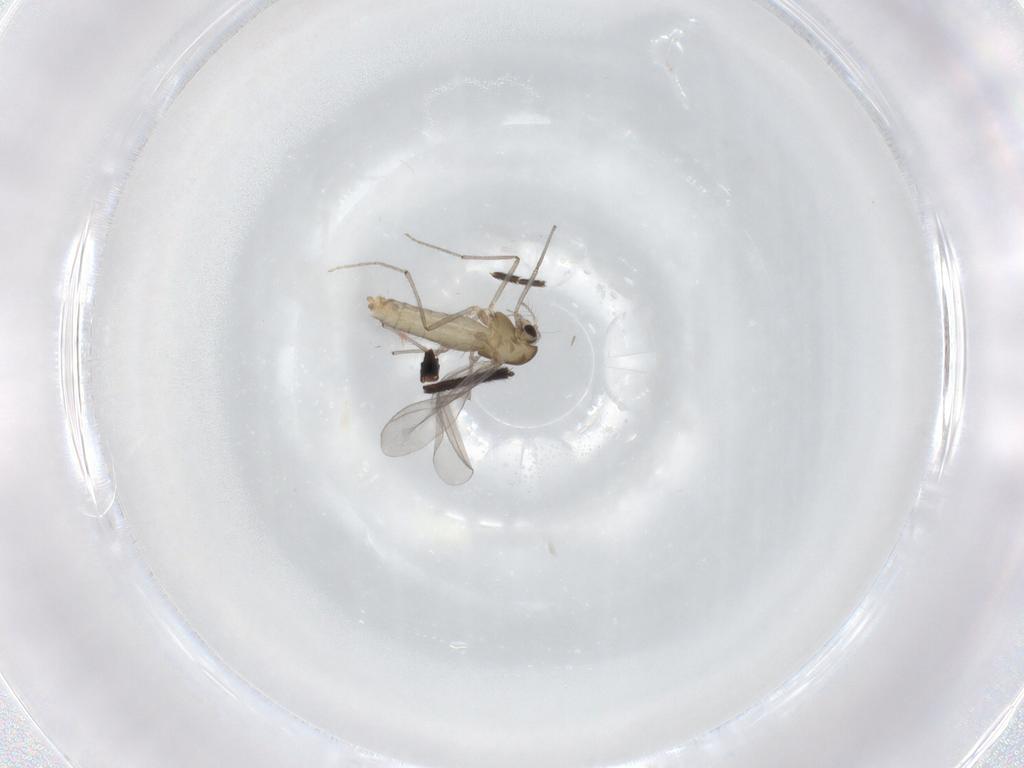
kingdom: Animalia
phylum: Arthropoda
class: Insecta
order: Diptera
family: Chironomidae
